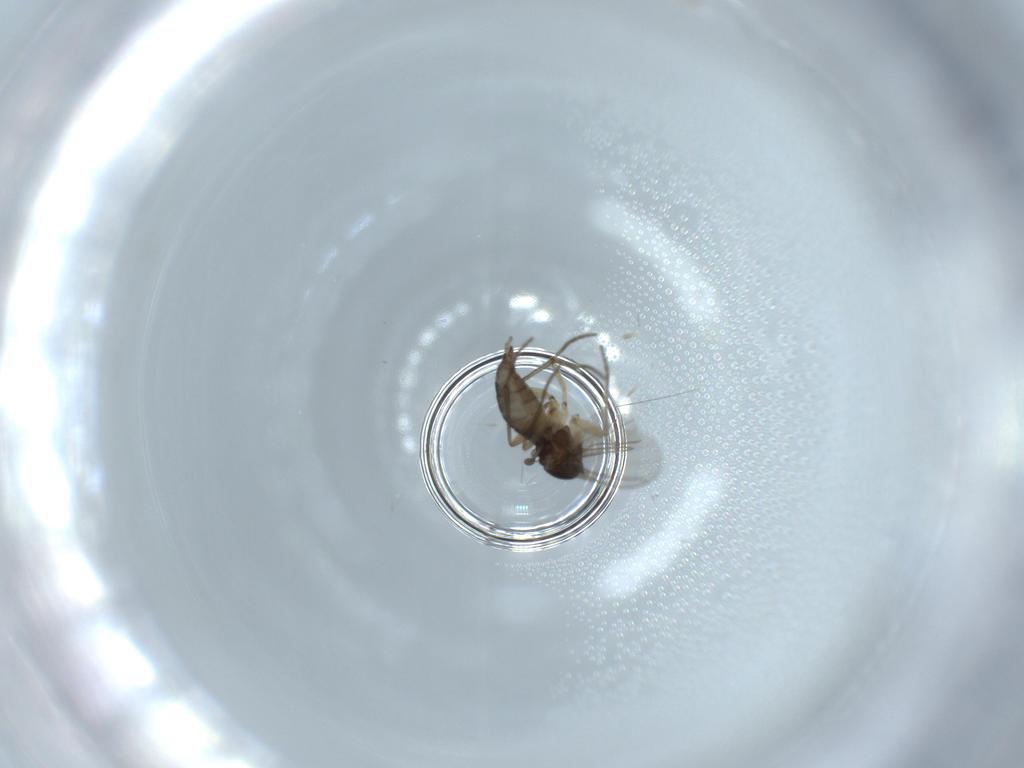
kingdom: Animalia
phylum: Arthropoda
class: Insecta
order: Diptera
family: Sciaridae
